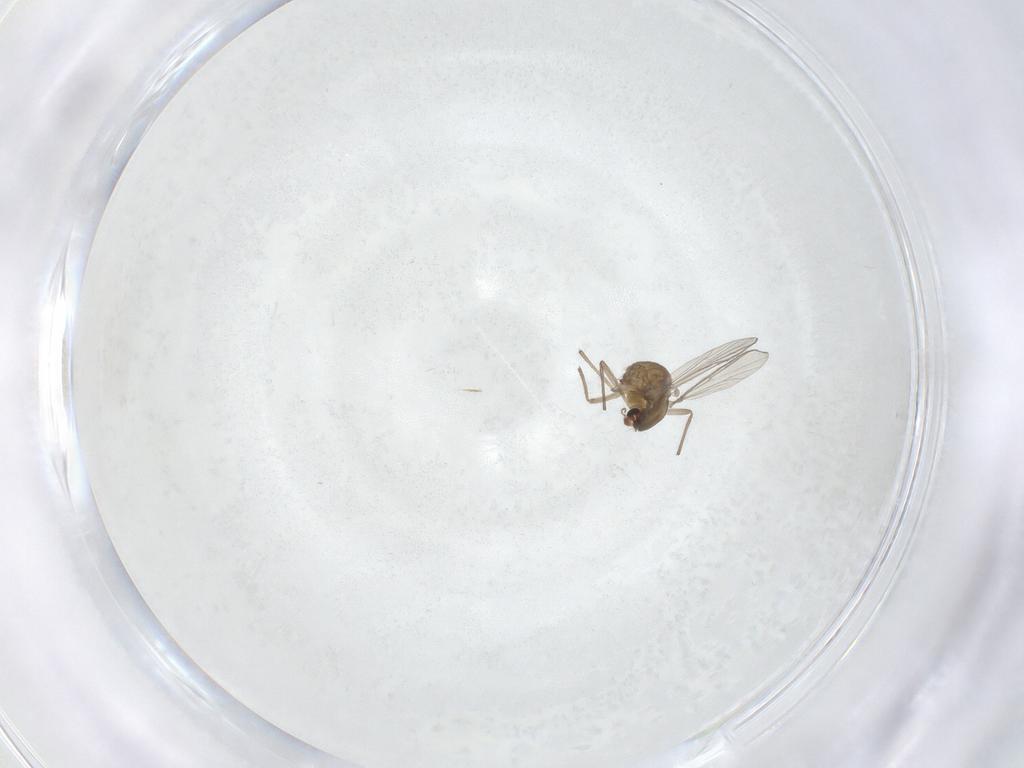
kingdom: Animalia
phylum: Arthropoda
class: Insecta
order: Diptera
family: Chironomidae
